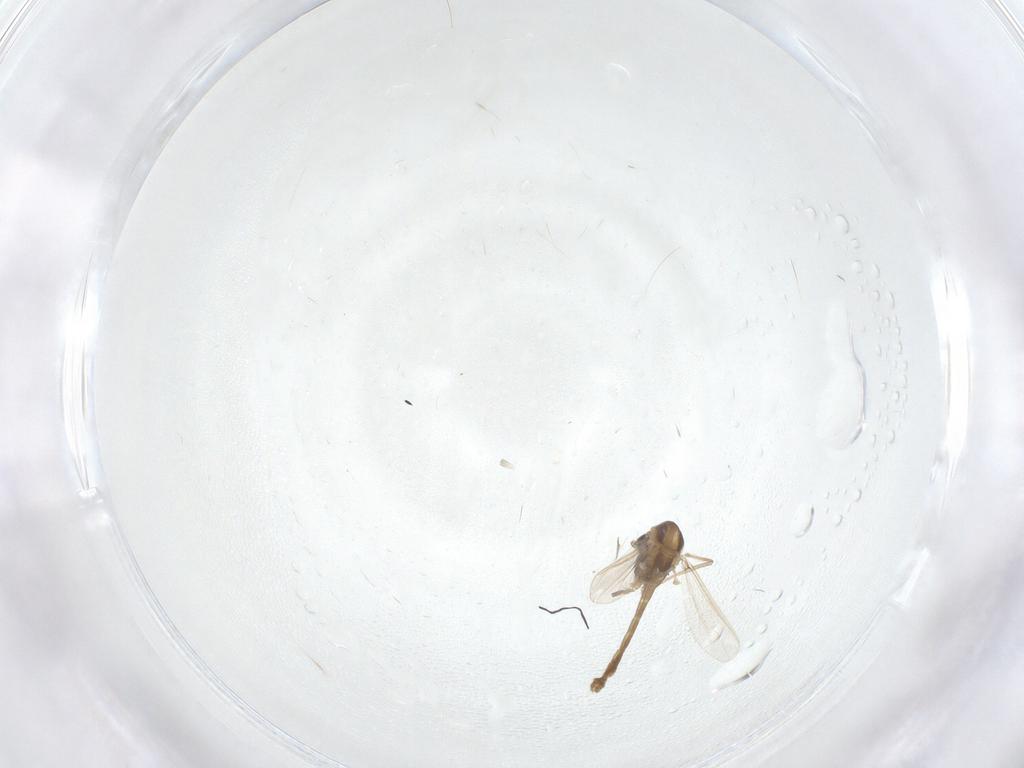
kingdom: Animalia
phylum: Arthropoda
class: Insecta
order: Diptera
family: Chironomidae
